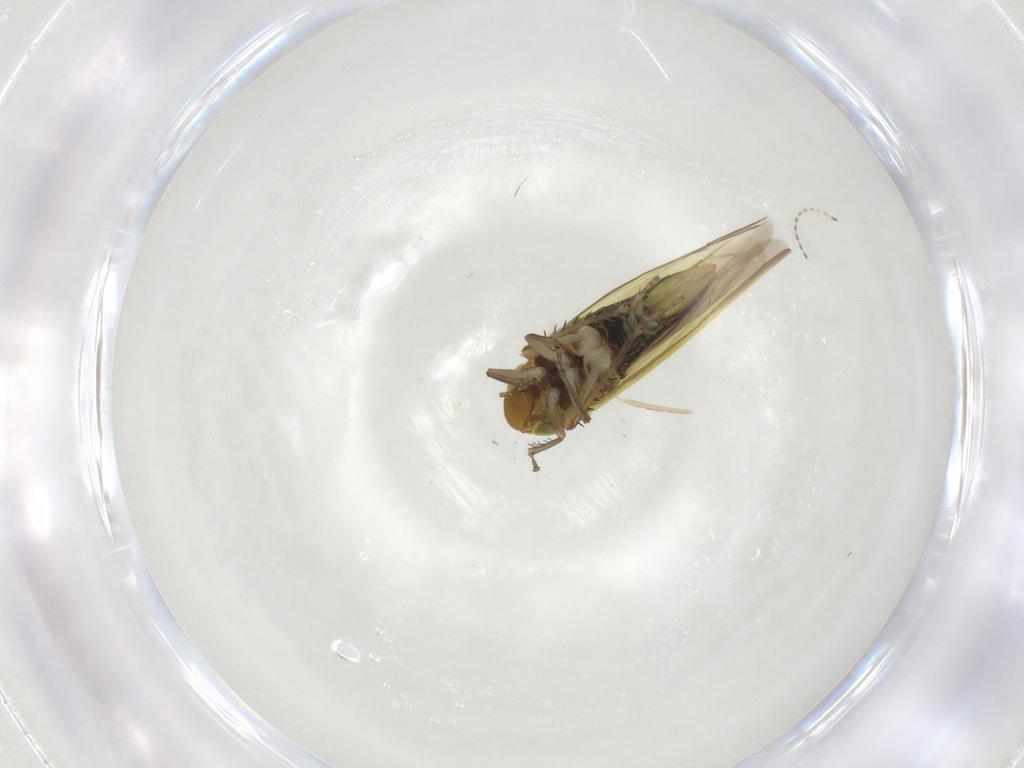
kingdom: Animalia
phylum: Arthropoda
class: Insecta
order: Hemiptera
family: Cicadellidae
